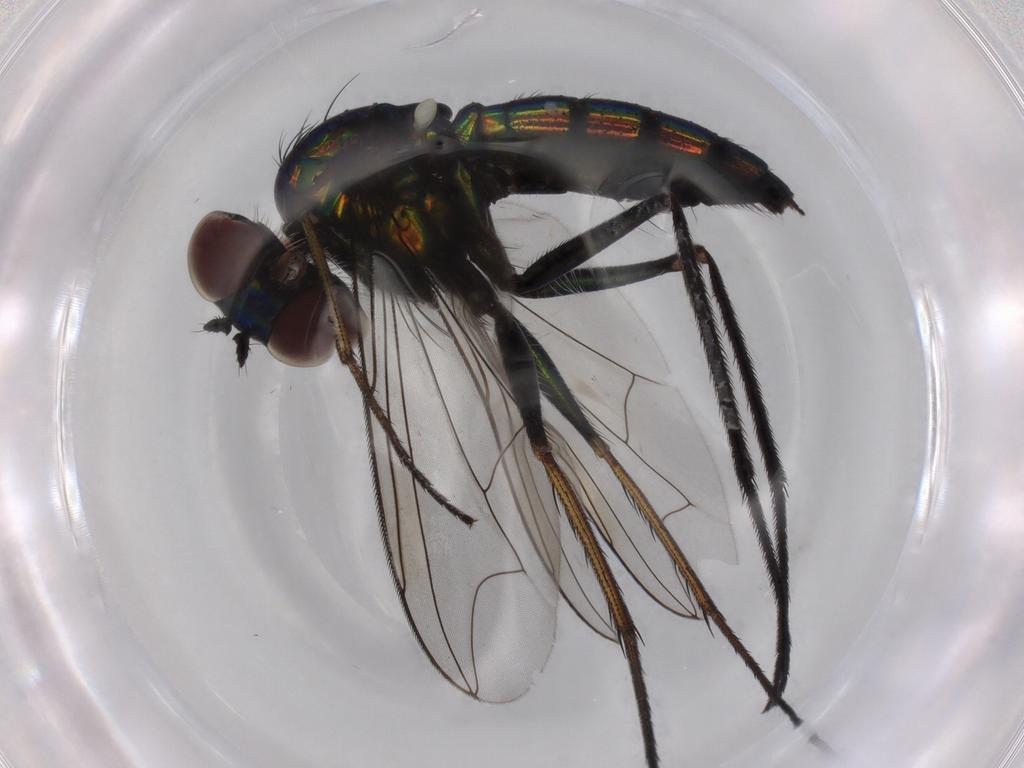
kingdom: Animalia
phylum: Arthropoda
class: Insecta
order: Diptera
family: Dolichopodidae
